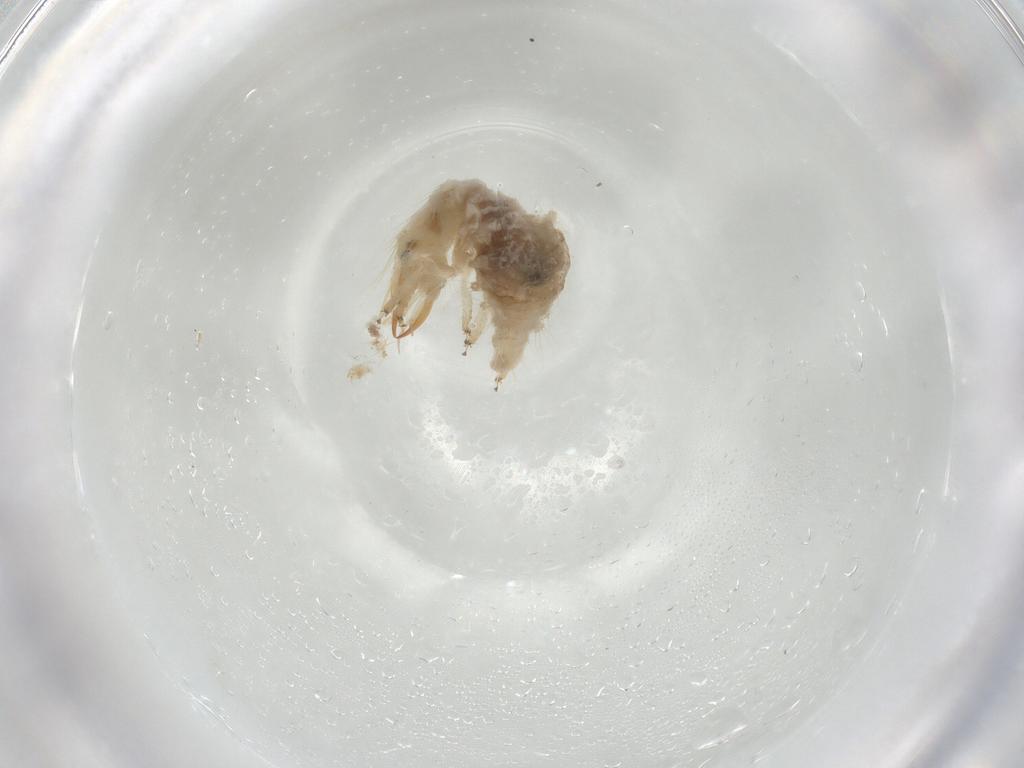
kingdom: Animalia
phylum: Arthropoda
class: Insecta
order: Neuroptera
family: Chrysopidae
